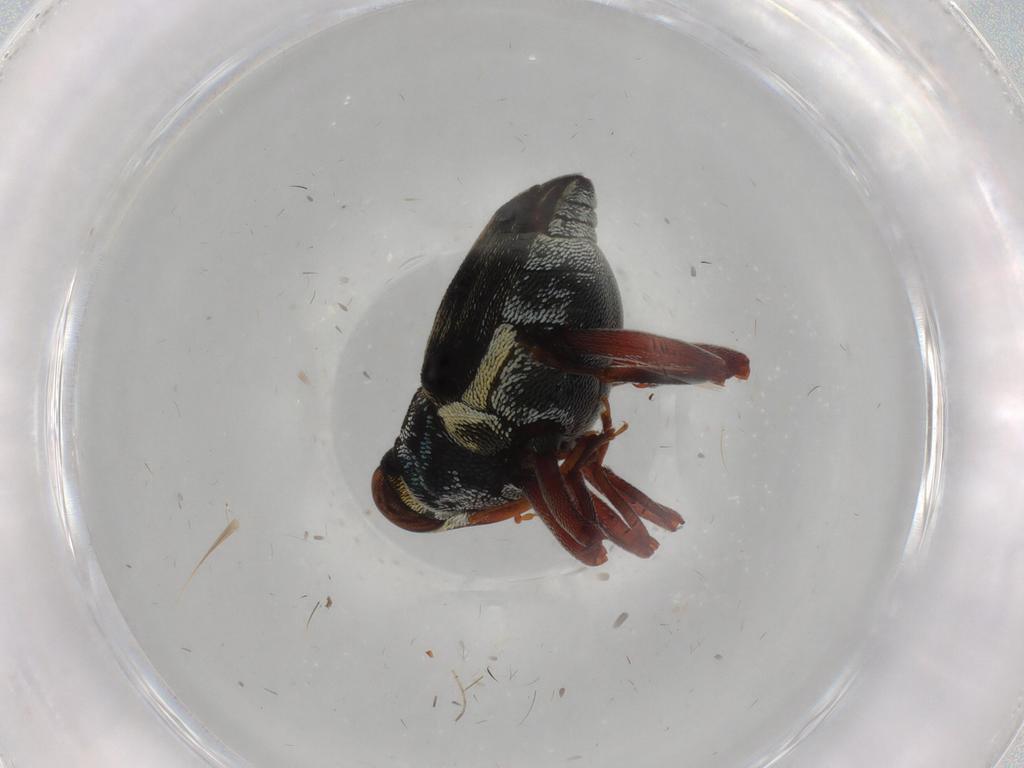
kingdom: Animalia
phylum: Arthropoda
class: Insecta
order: Coleoptera
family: Curculionidae
